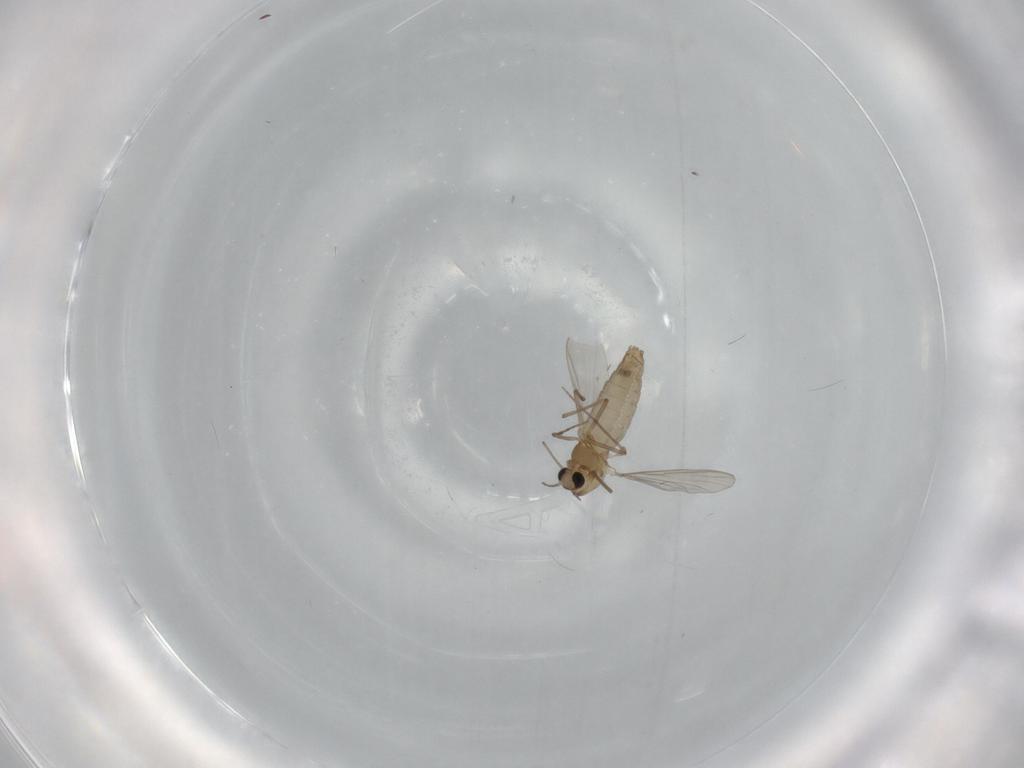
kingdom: Animalia
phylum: Arthropoda
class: Insecta
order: Diptera
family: Chironomidae
